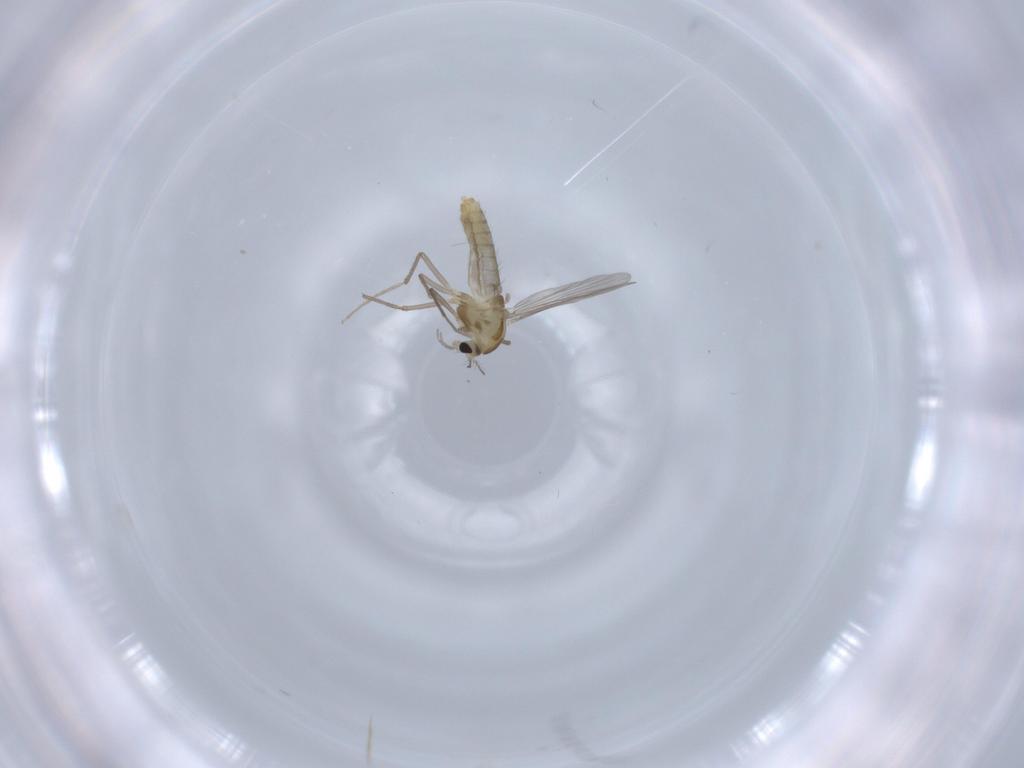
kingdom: Animalia
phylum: Arthropoda
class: Insecta
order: Diptera
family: Chironomidae
